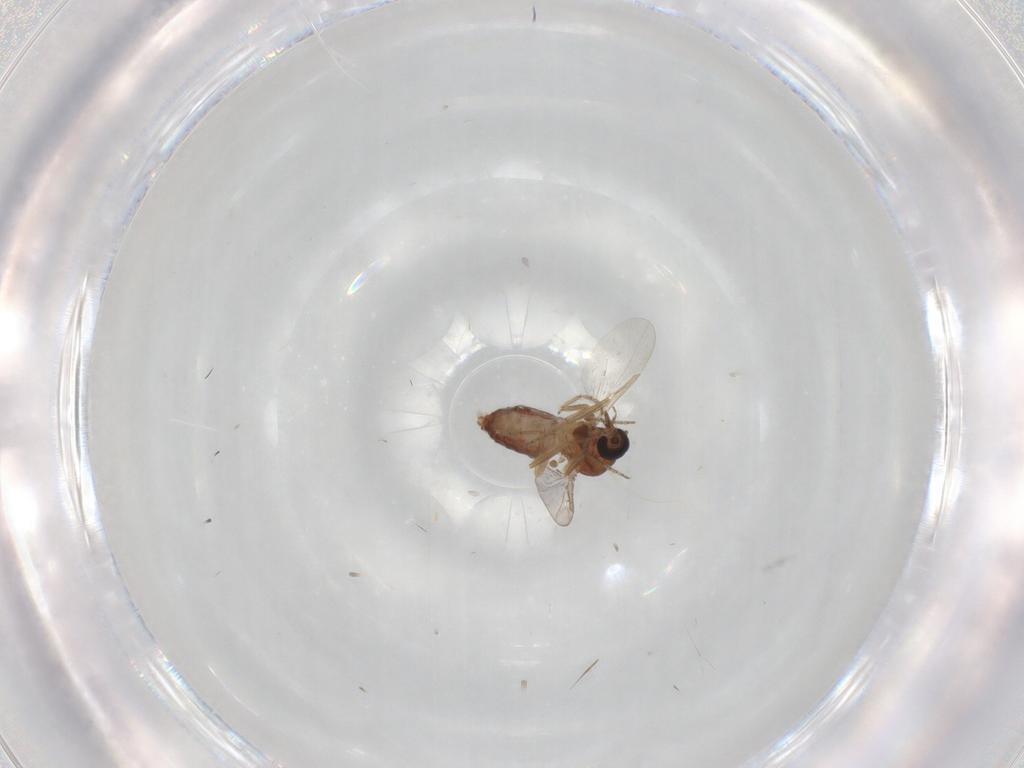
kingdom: Animalia
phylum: Arthropoda
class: Insecta
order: Diptera
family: Ceratopogonidae
